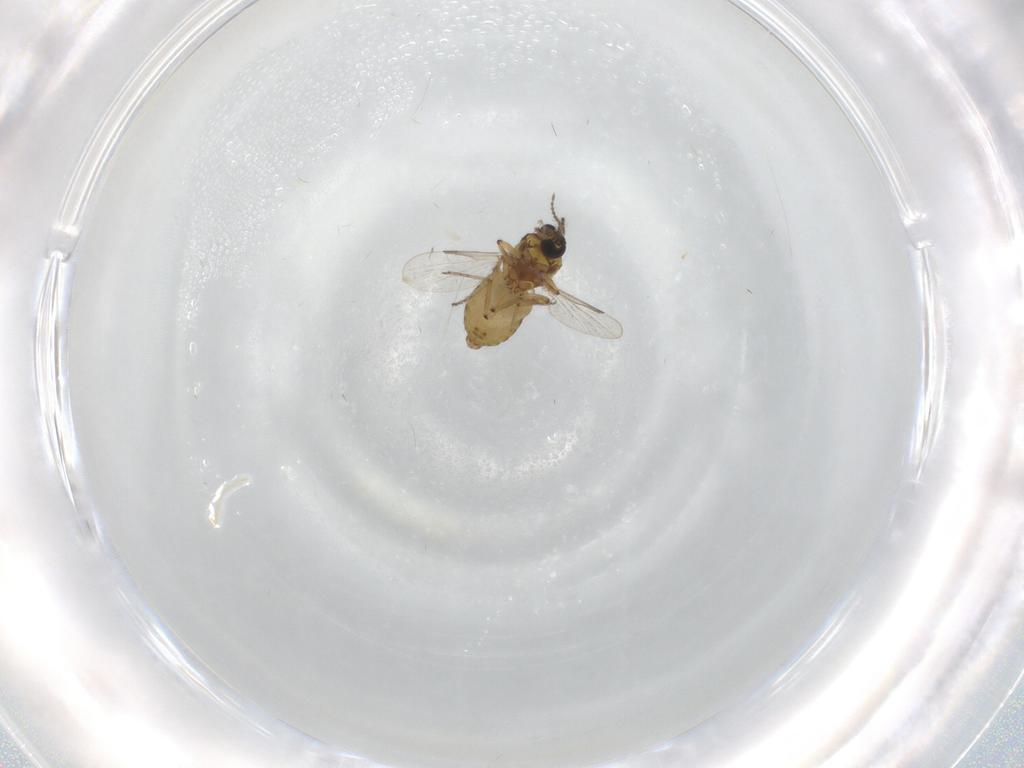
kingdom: Animalia
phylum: Arthropoda
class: Insecta
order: Diptera
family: Ceratopogonidae
